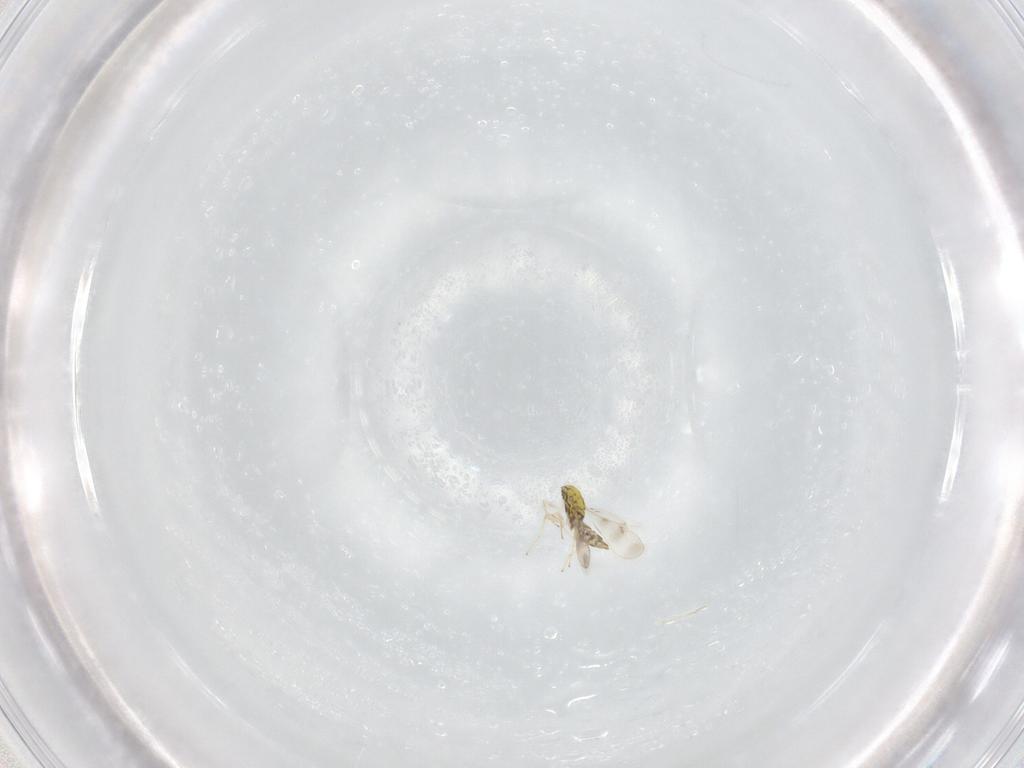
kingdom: Animalia
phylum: Arthropoda
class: Insecta
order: Hymenoptera
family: Eulophidae
